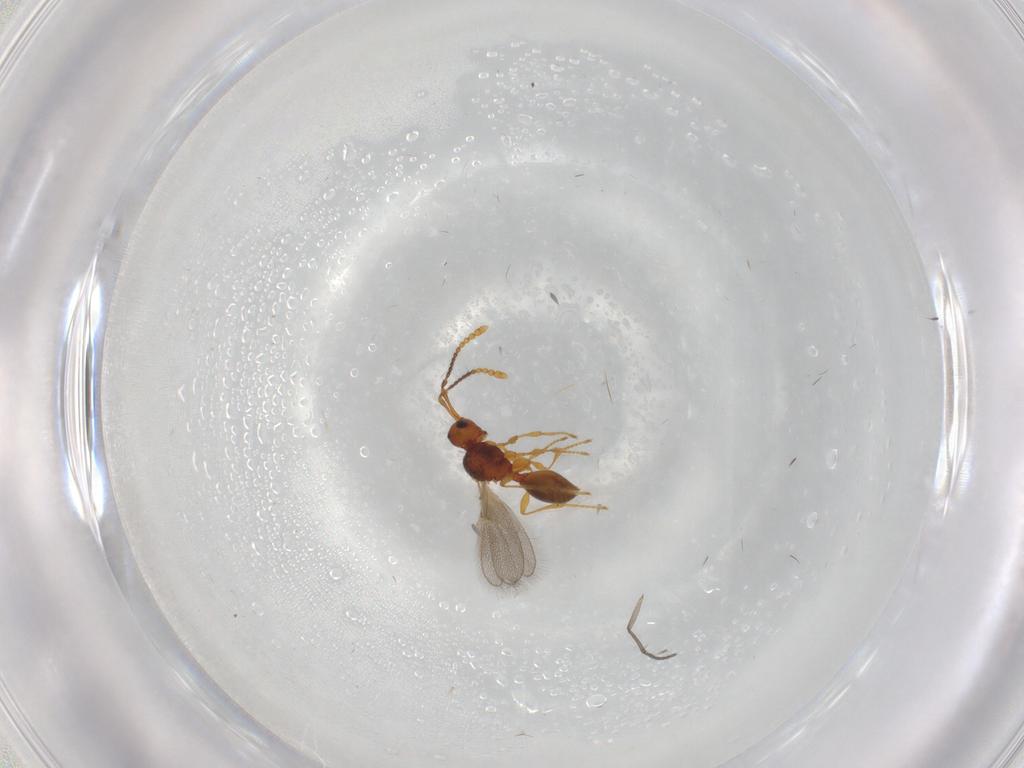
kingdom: Animalia
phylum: Arthropoda
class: Insecta
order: Hymenoptera
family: Diapriidae
